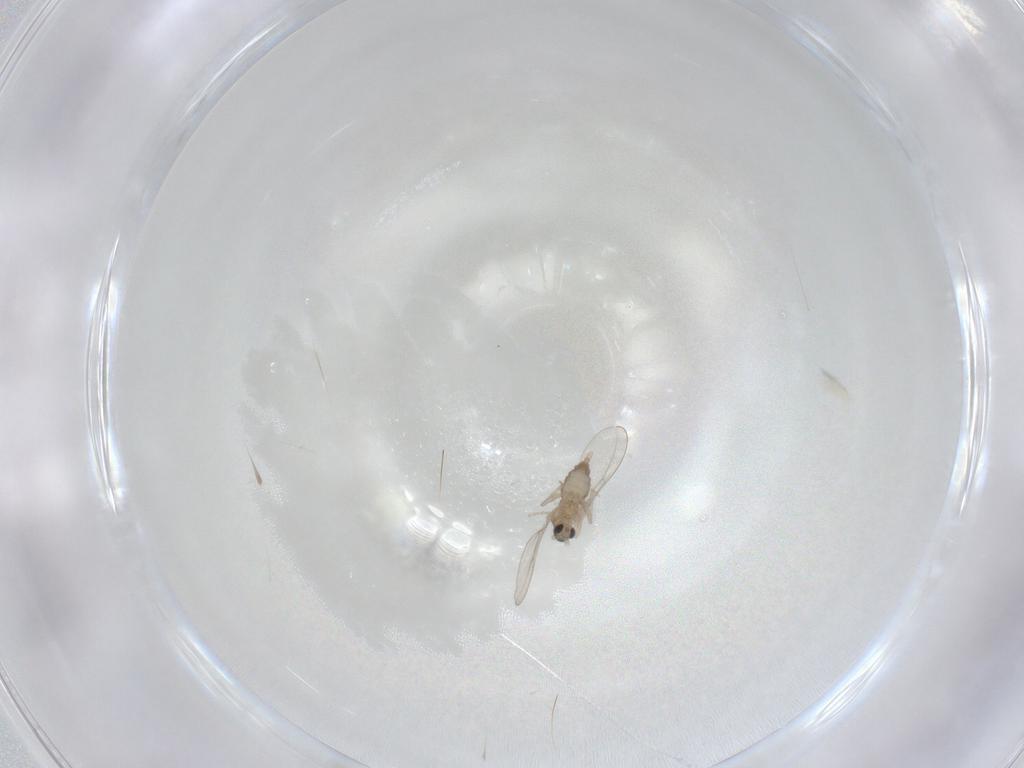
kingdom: Animalia
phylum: Arthropoda
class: Insecta
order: Diptera
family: Cecidomyiidae
